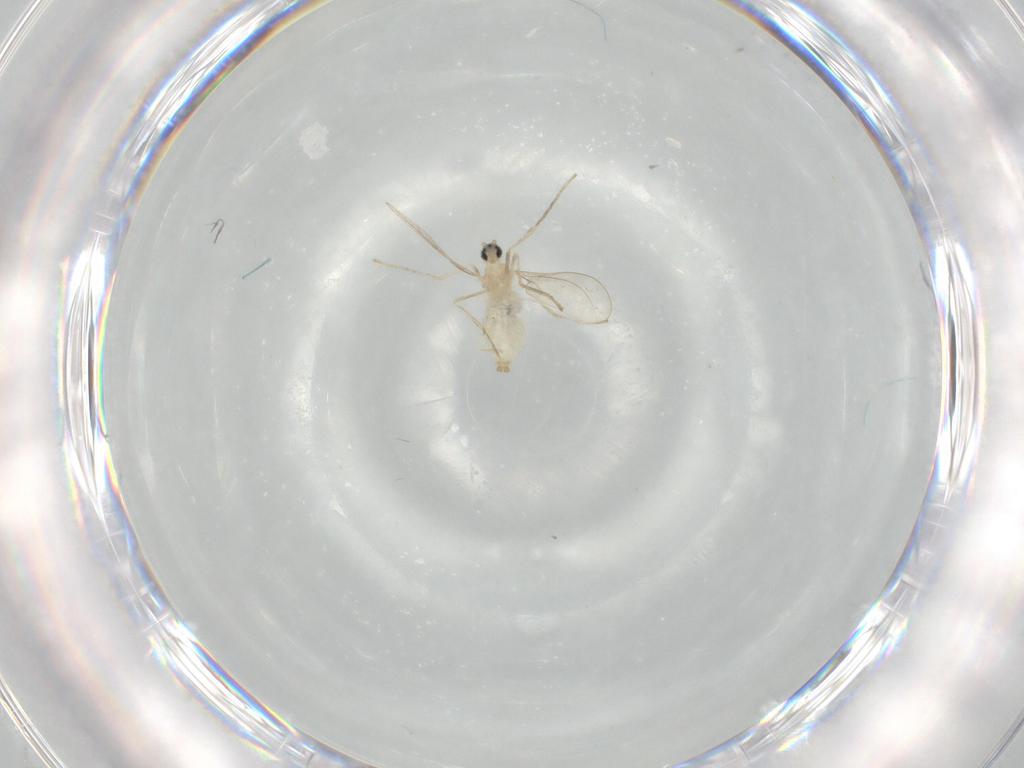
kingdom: Animalia
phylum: Arthropoda
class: Insecta
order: Diptera
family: Cecidomyiidae
